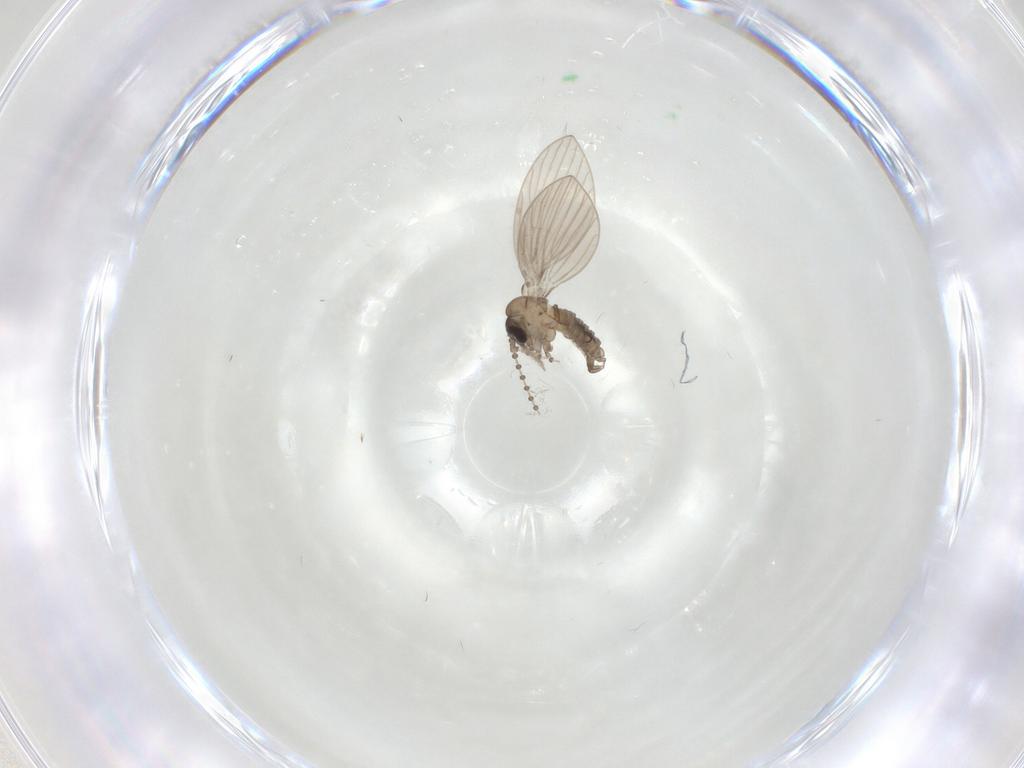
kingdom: Animalia
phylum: Arthropoda
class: Insecta
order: Diptera
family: Psychodidae
